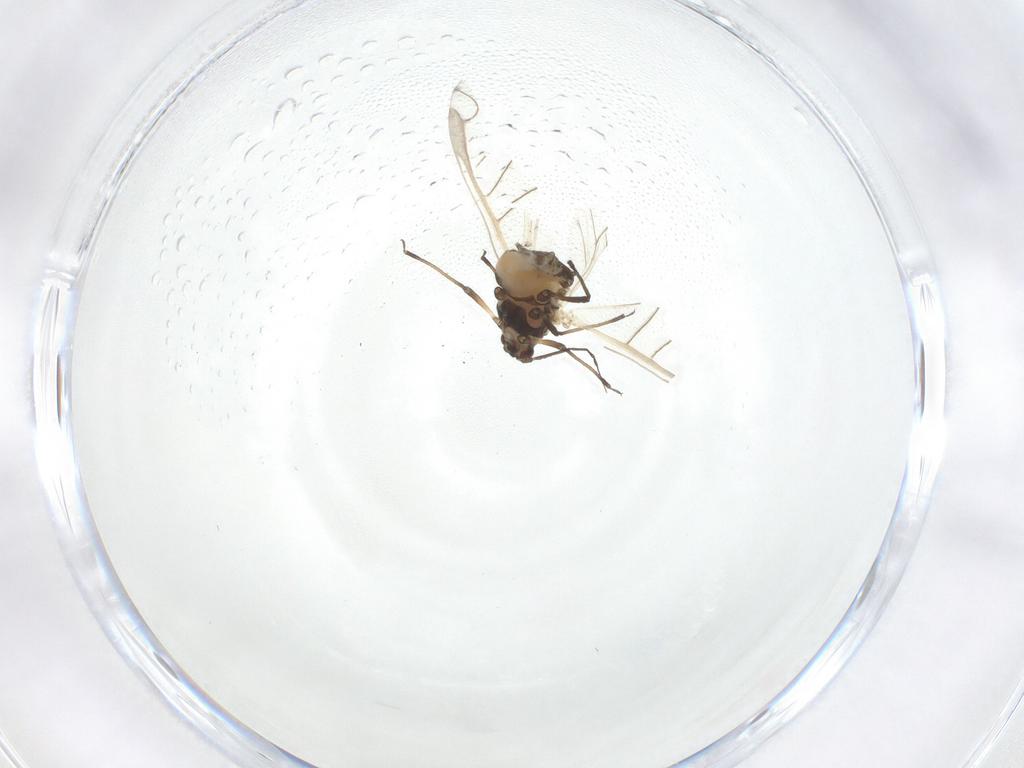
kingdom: Animalia
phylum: Arthropoda
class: Insecta
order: Hemiptera
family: Aphididae
